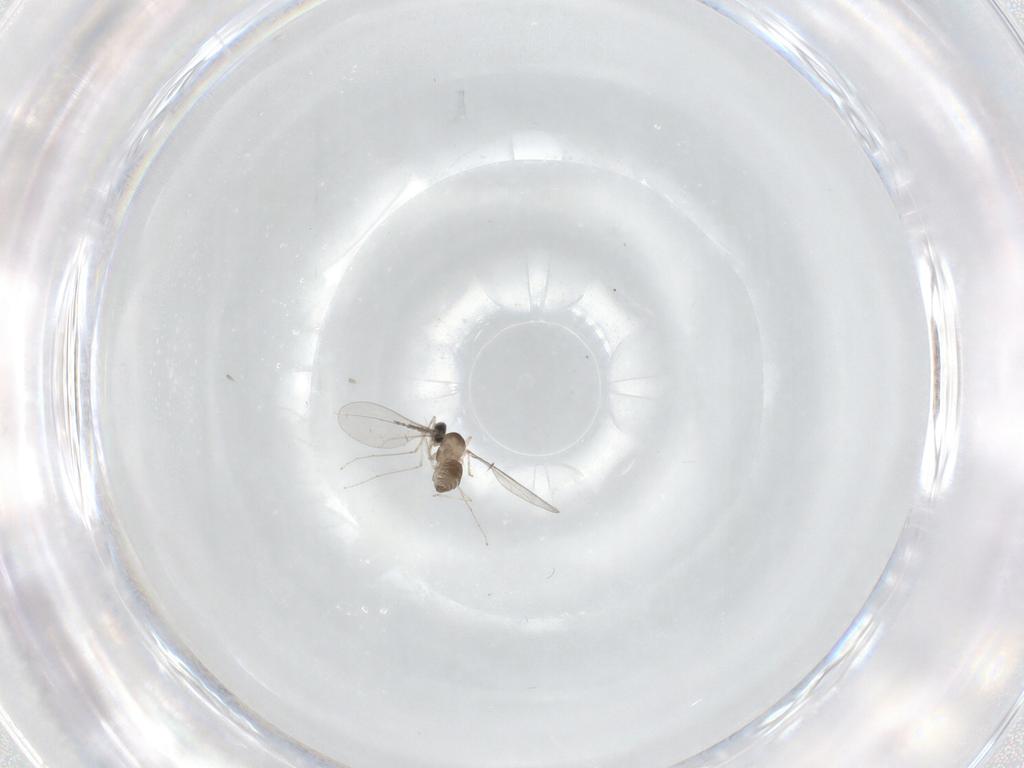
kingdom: Animalia
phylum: Arthropoda
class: Insecta
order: Diptera
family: Cecidomyiidae
